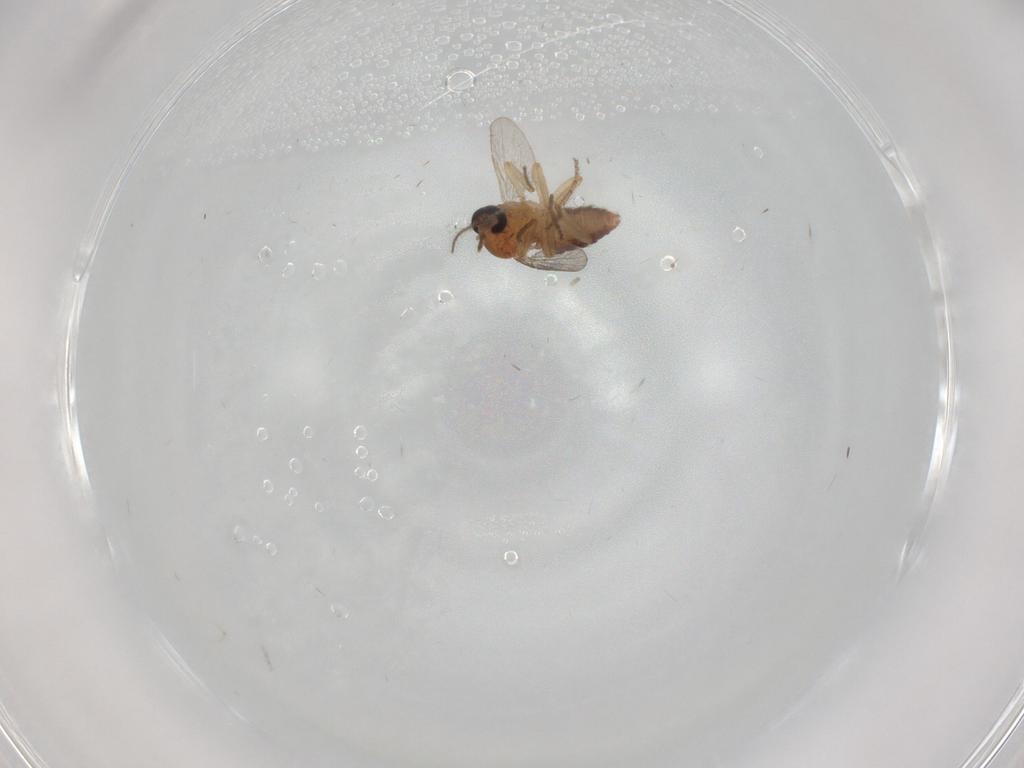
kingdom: Animalia
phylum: Arthropoda
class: Insecta
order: Diptera
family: Ceratopogonidae
